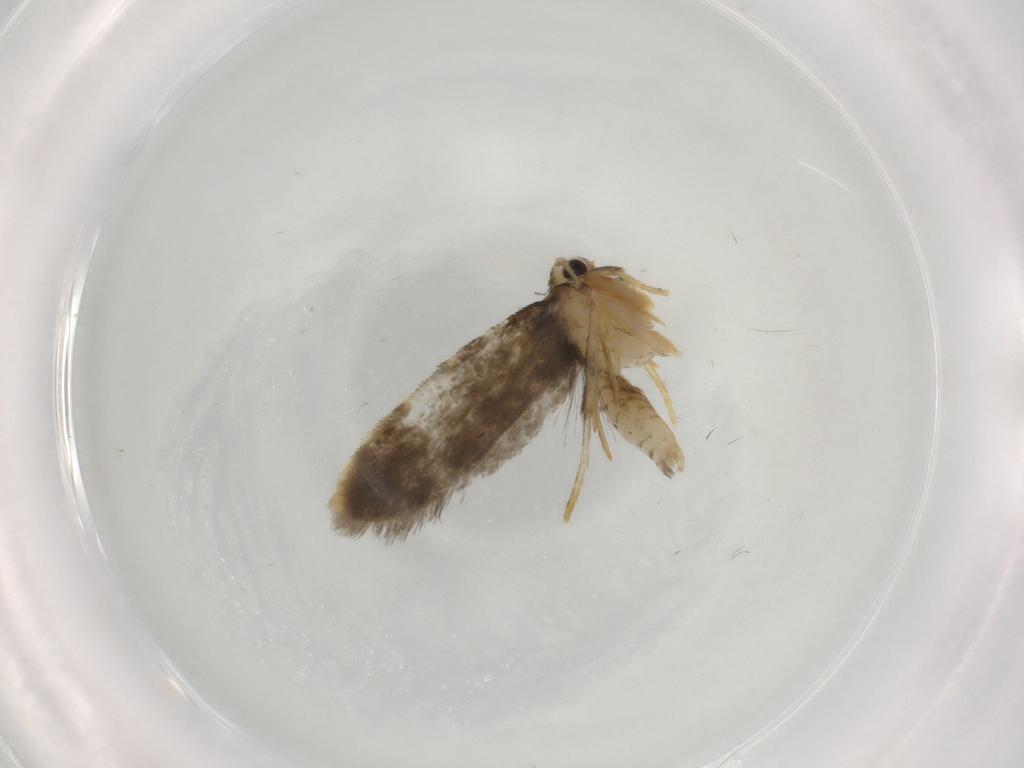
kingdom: Animalia
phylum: Arthropoda
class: Insecta
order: Lepidoptera
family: Psychidae
